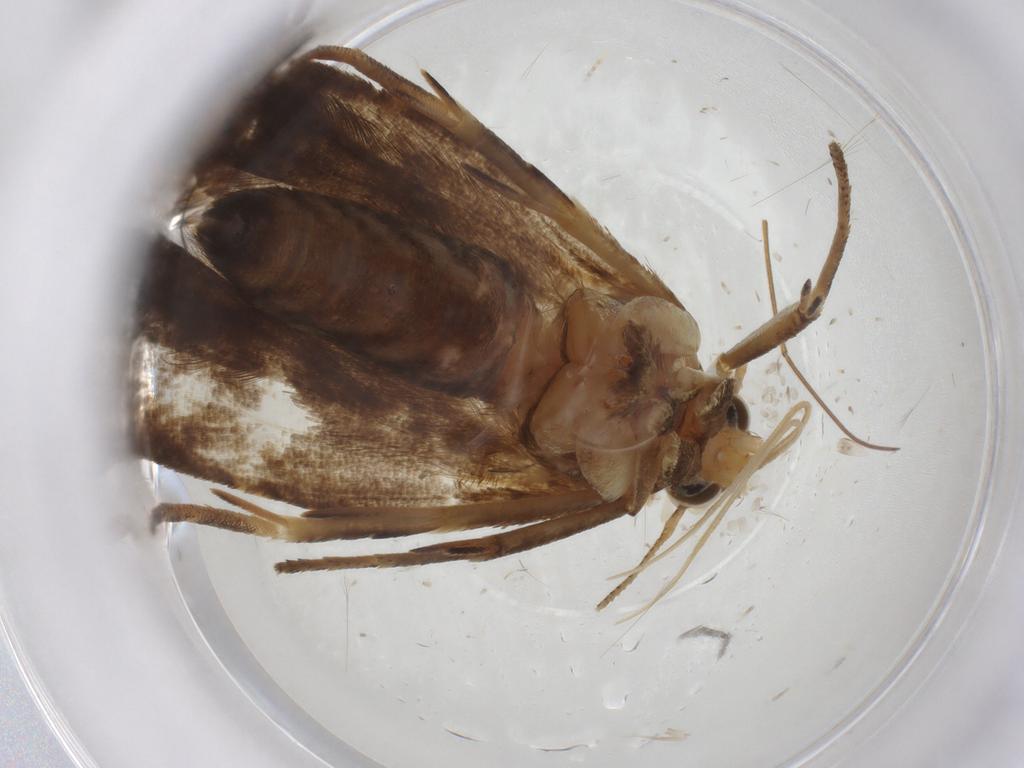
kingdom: Animalia
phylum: Arthropoda
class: Insecta
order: Lepidoptera
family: Gelechiidae
